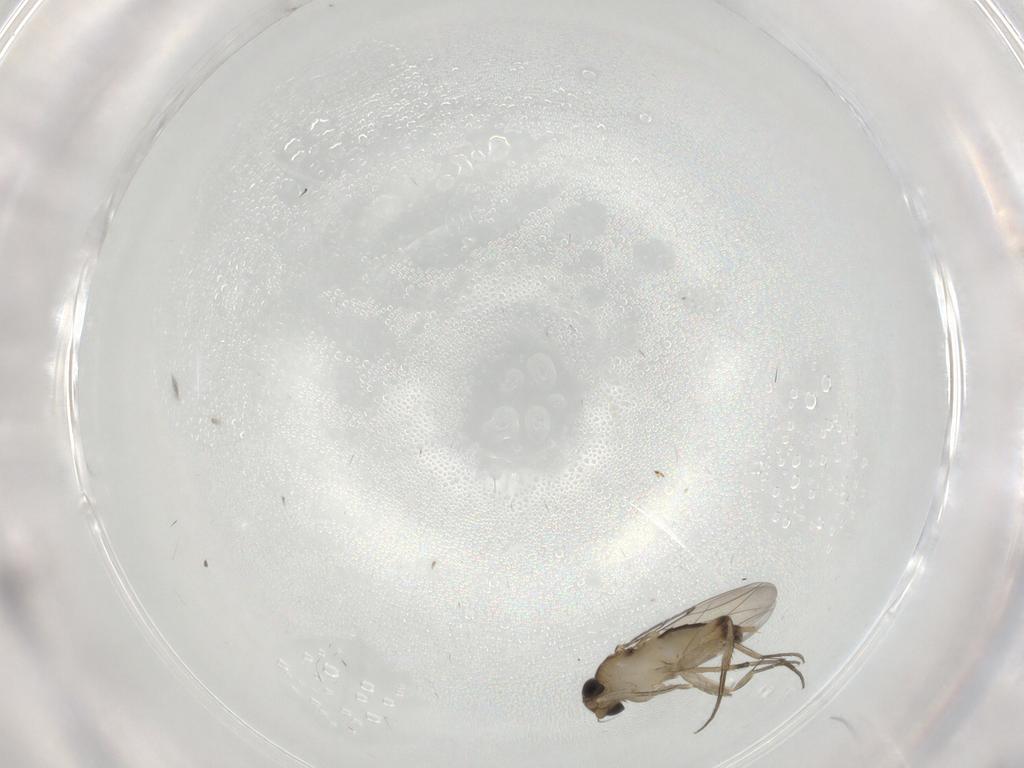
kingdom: Animalia
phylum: Arthropoda
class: Insecta
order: Diptera
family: Phoridae
